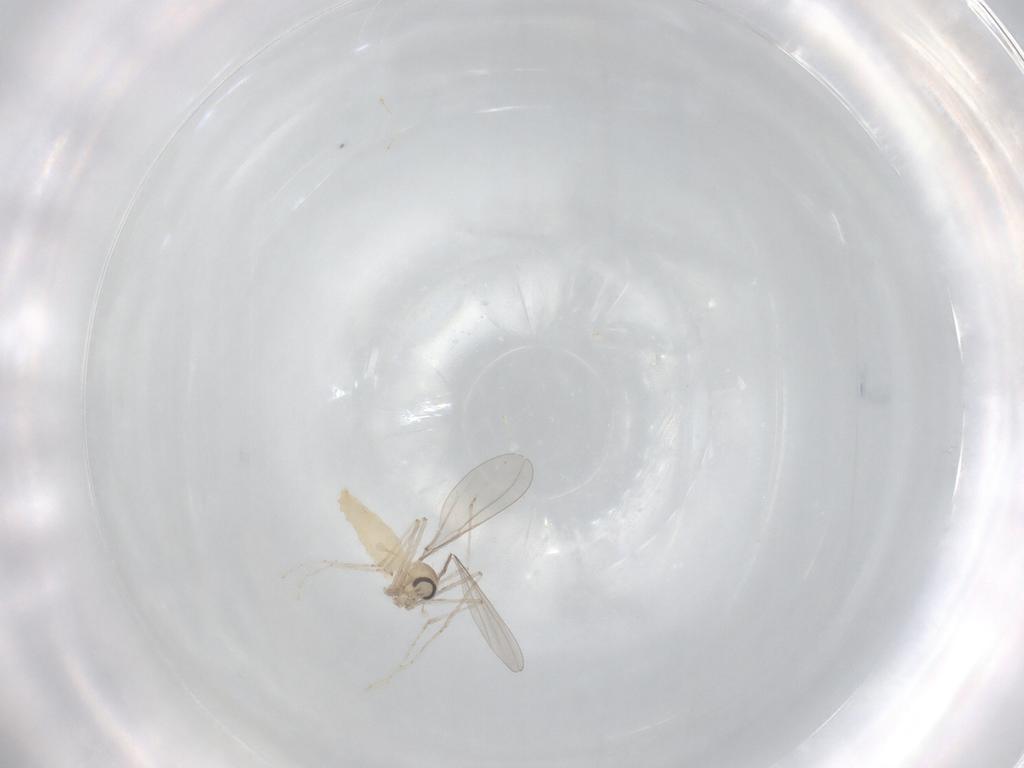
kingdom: Animalia
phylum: Arthropoda
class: Insecta
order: Diptera
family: Cecidomyiidae
